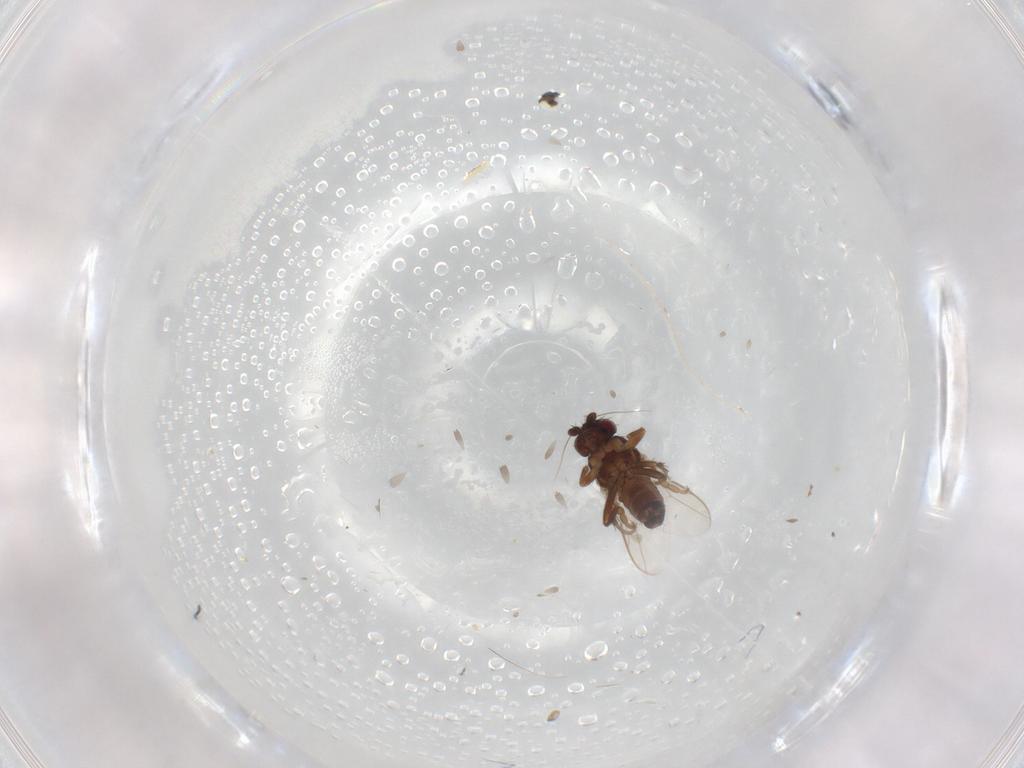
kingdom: Animalia
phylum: Arthropoda
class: Insecta
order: Diptera
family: Sphaeroceridae
